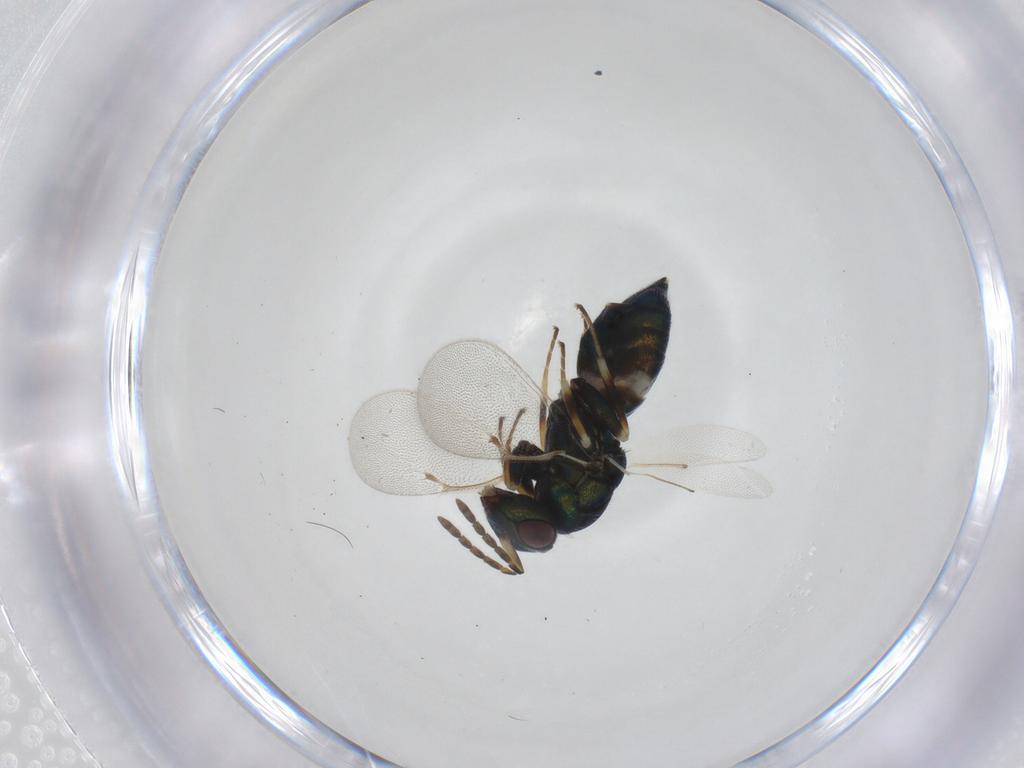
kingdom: Animalia
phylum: Arthropoda
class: Insecta
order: Hymenoptera
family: Eulophidae
